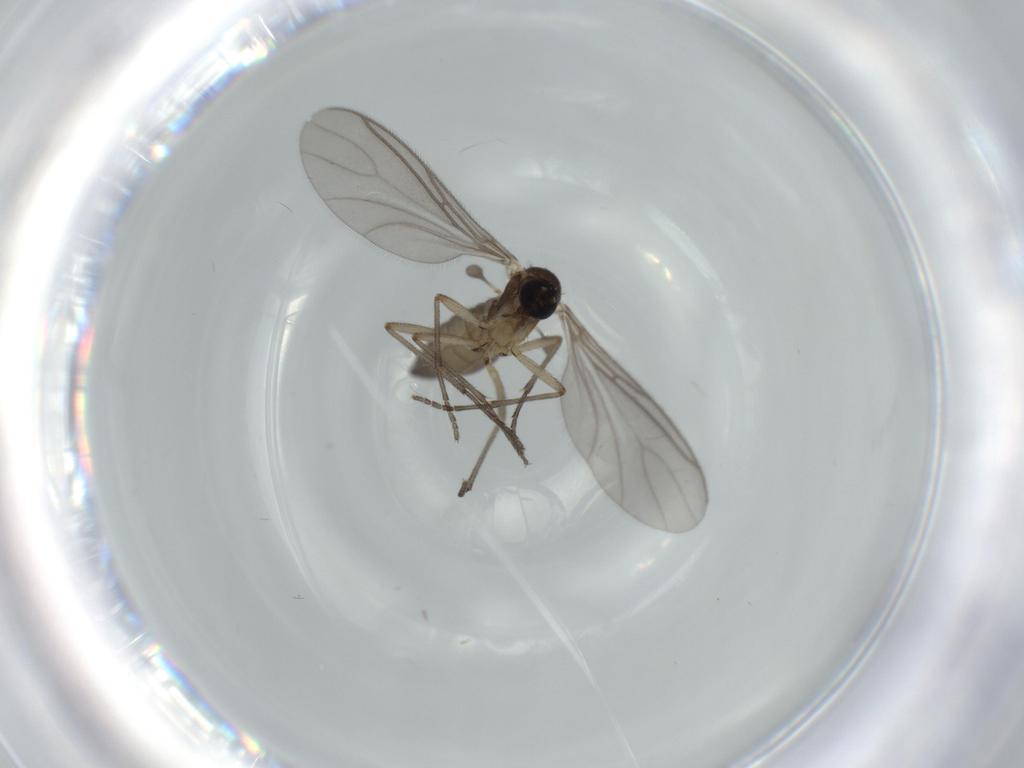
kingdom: Animalia
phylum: Arthropoda
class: Insecta
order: Diptera
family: Sciaridae
